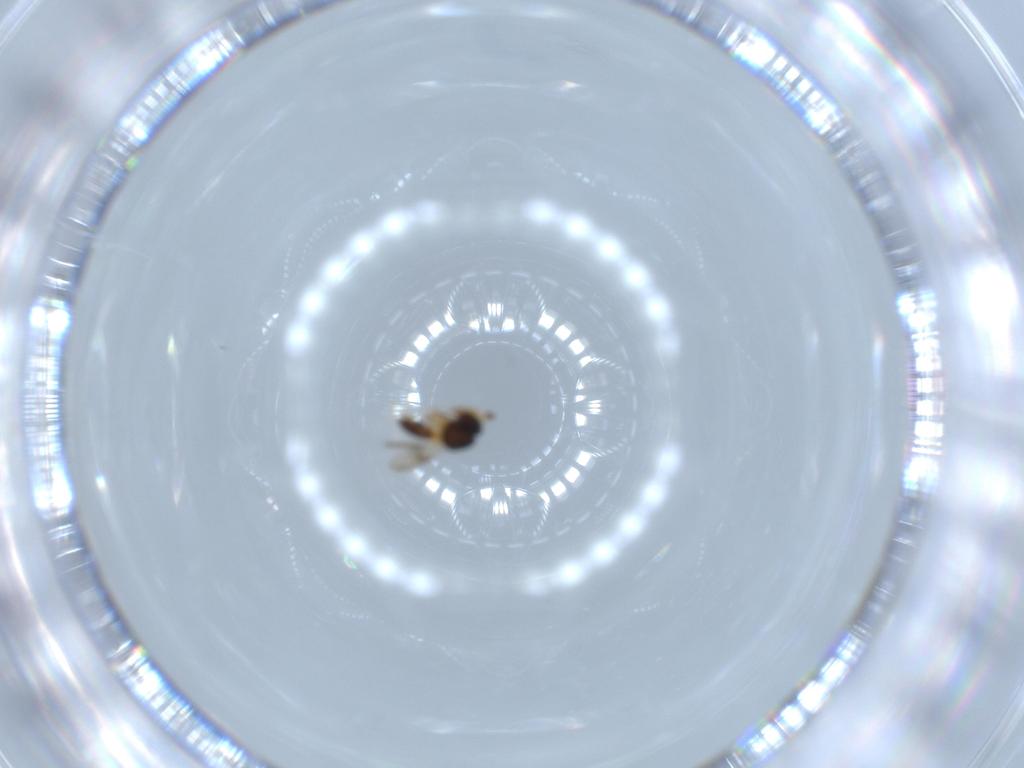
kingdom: Animalia
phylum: Arthropoda
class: Insecta
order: Hymenoptera
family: Scelionidae
